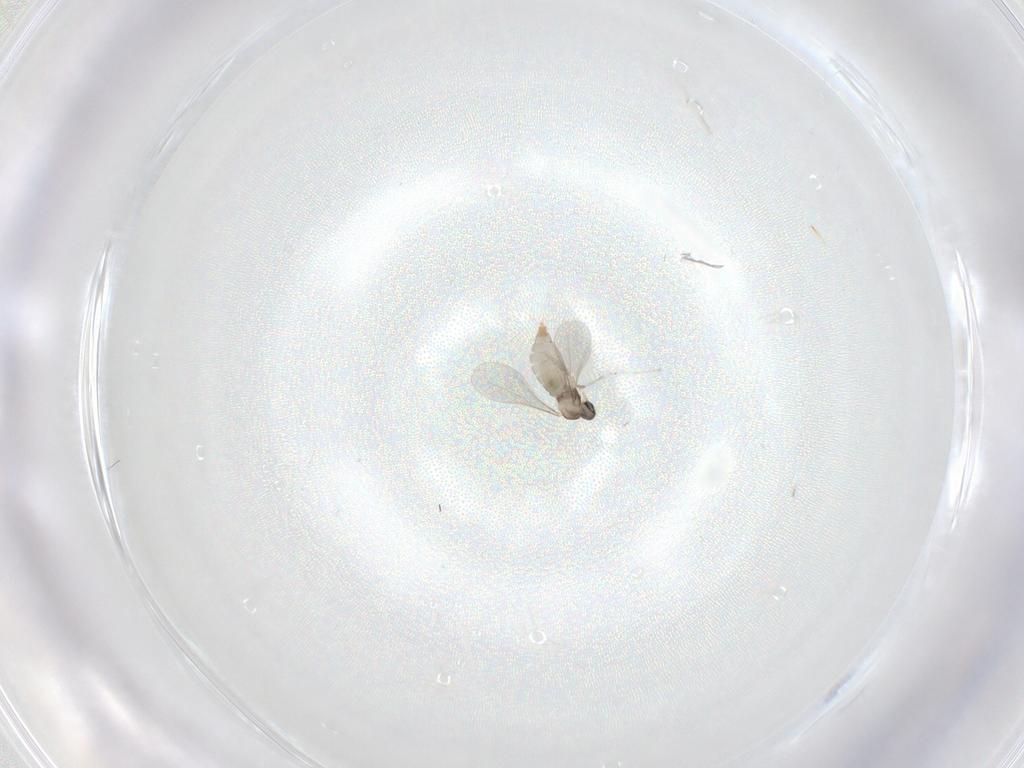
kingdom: Animalia
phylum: Arthropoda
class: Insecta
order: Diptera
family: Cecidomyiidae
